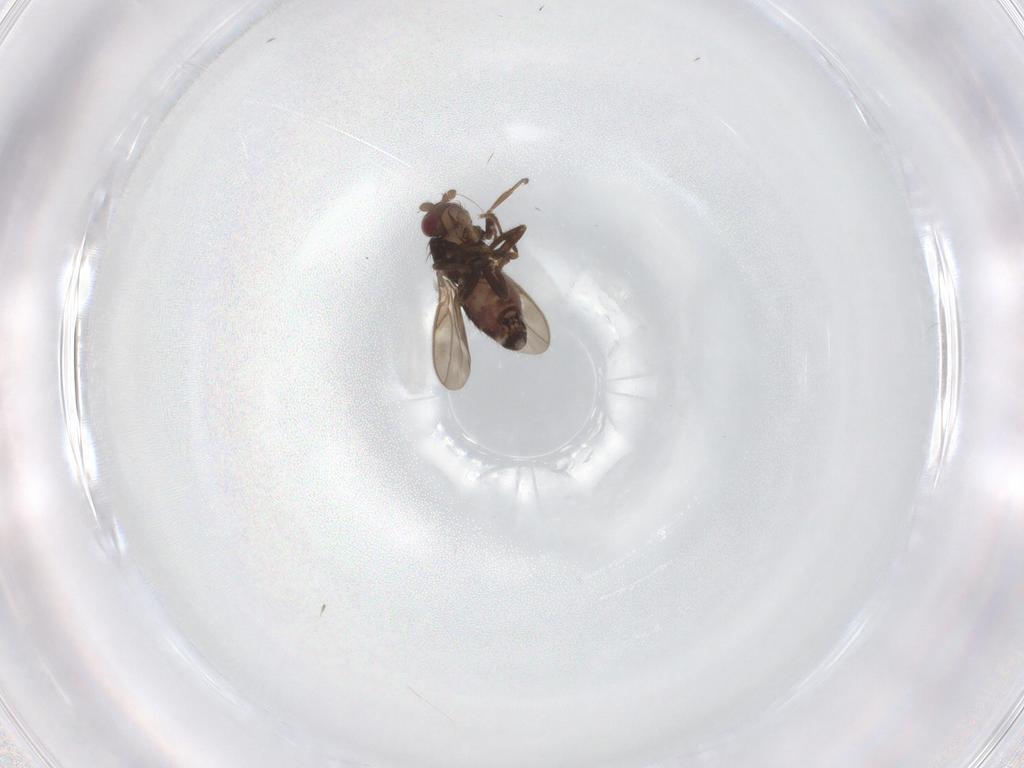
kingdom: Animalia
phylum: Arthropoda
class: Insecta
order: Diptera
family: Sphaeroceridae
